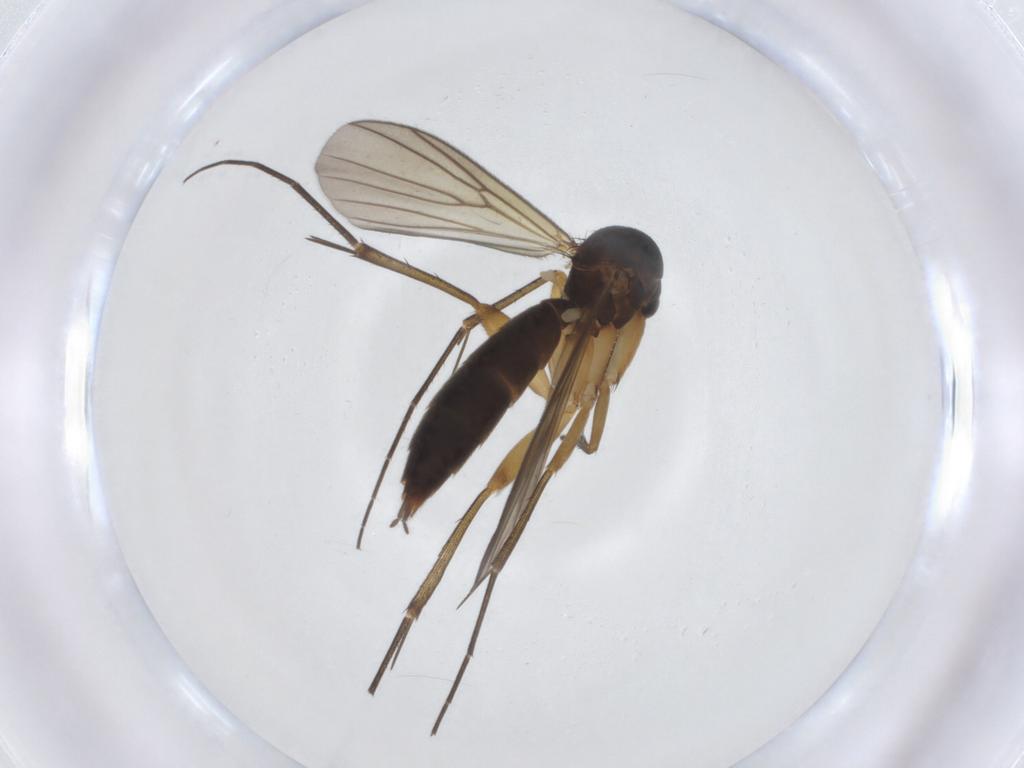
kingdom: Animalia
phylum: Arthropoda
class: Insecta
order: Diptera
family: Mycetophilidae
